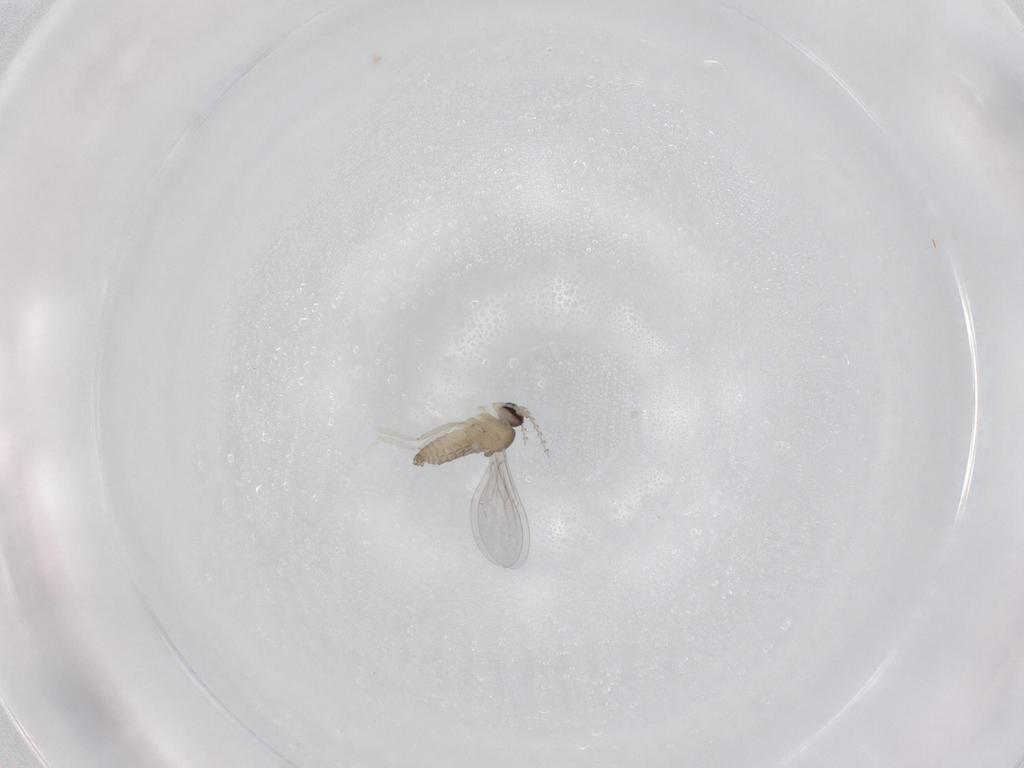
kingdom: Animalia
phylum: Arthropoda
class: Insecta
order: Diptera
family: Cecidomyiidae
